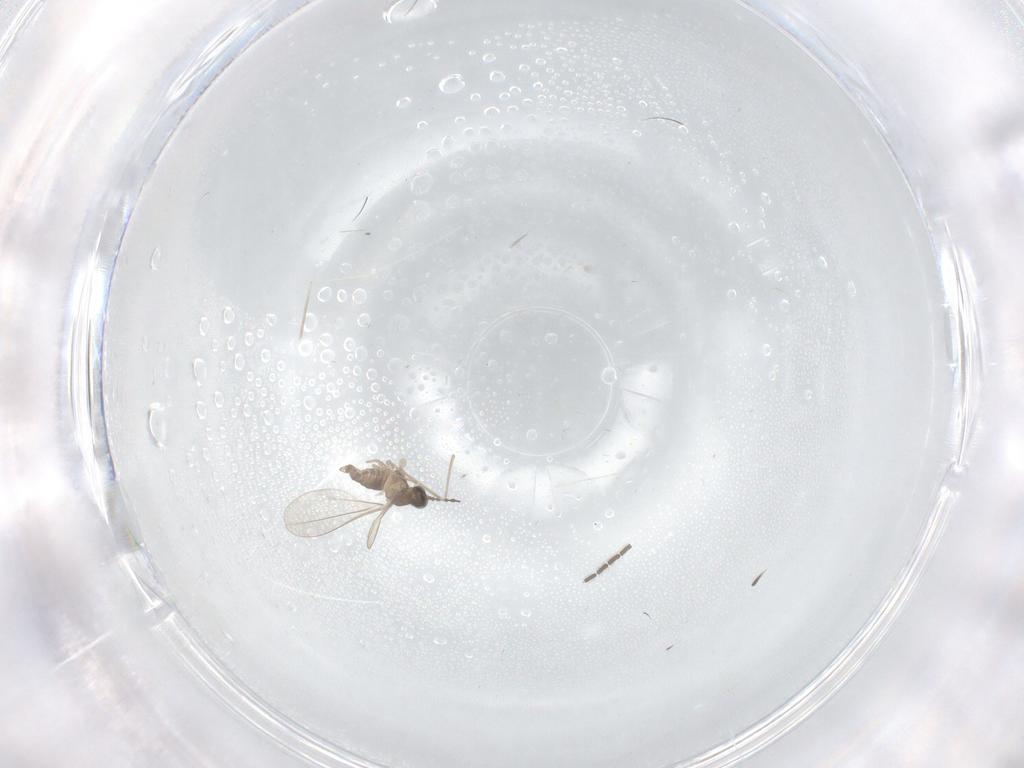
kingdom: Animalia
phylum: Arthropoda
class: Insecta
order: Diptera
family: Cecidomyiidae
